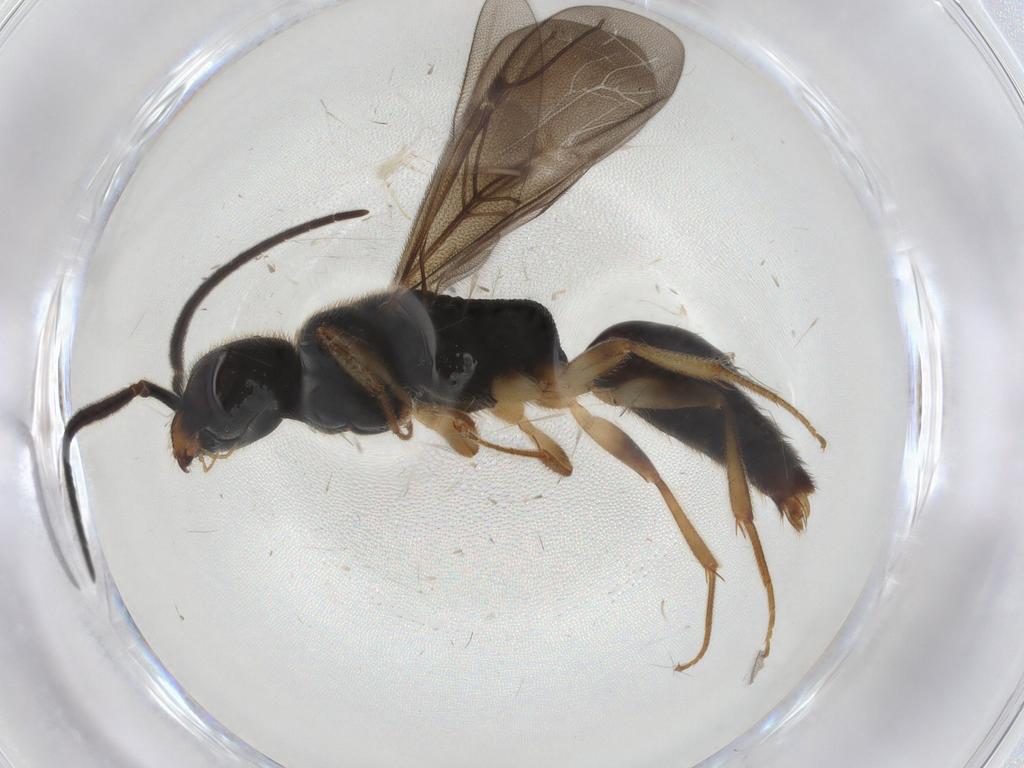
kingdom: Animalia
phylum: Arthropoda
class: Insecta
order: Hymenoptera
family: Bethylidae
